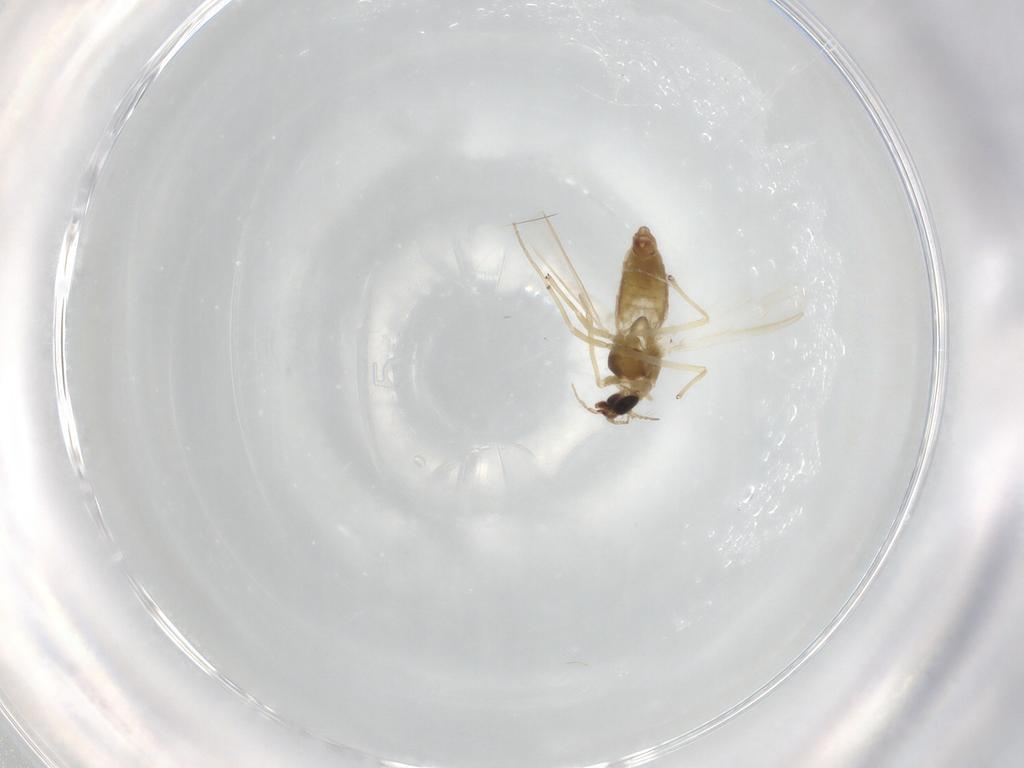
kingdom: Animalia
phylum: Arthropoda
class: Insecta
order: Diptera
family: Chironomidae
